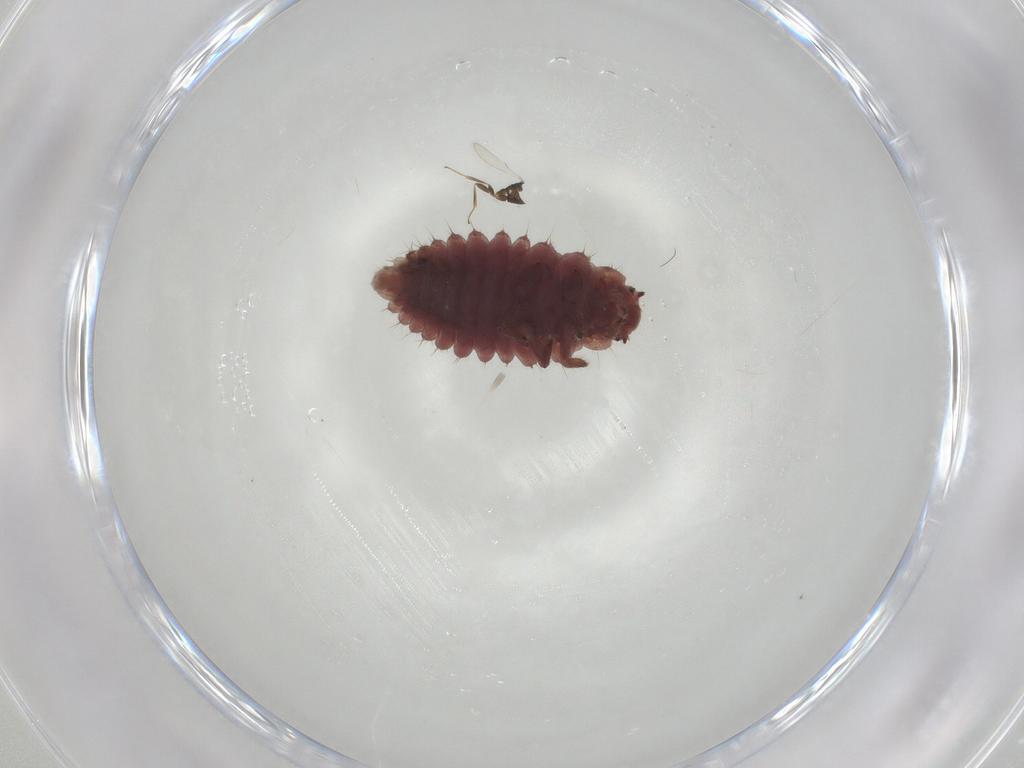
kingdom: Animalia
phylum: Arthropoda
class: Insecta
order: Coleoptera
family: Coccinellidae
